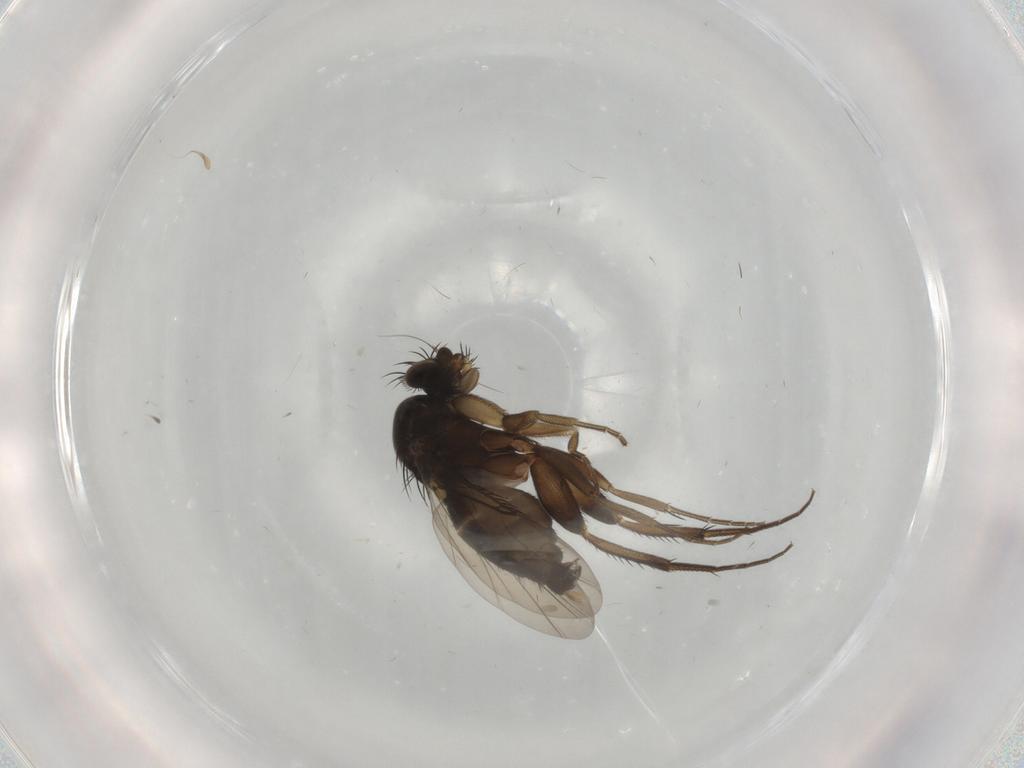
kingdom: Animalia
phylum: Arthropoda
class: Insecta
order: Diptera
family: Phoridae
